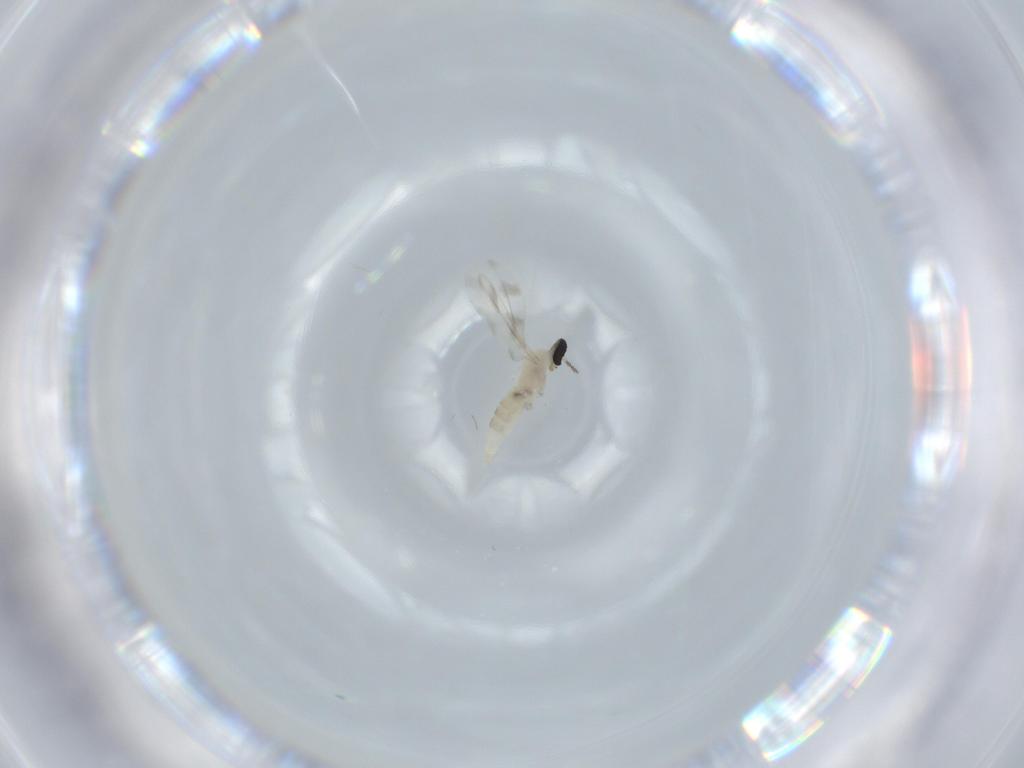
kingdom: Animalia
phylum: Arthropoda
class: Insecta
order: Diptera
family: Cecidomyiidae
